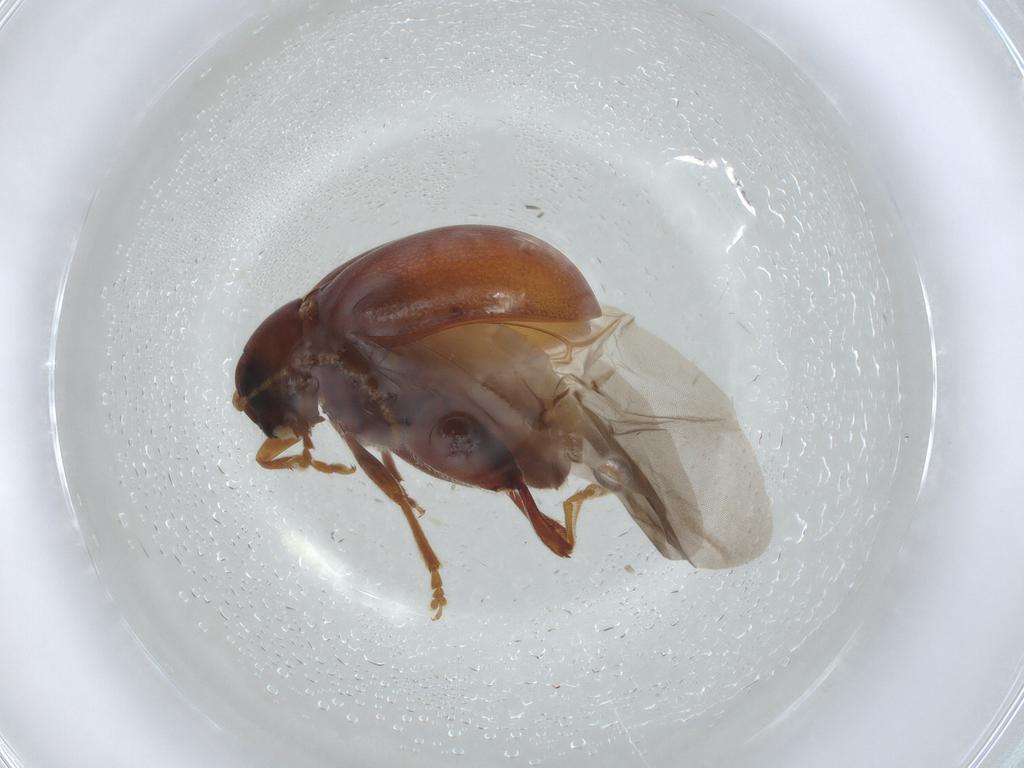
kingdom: Animalia
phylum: Arthropoda
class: Insecta
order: Coleoptera
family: Chrysomelidae
